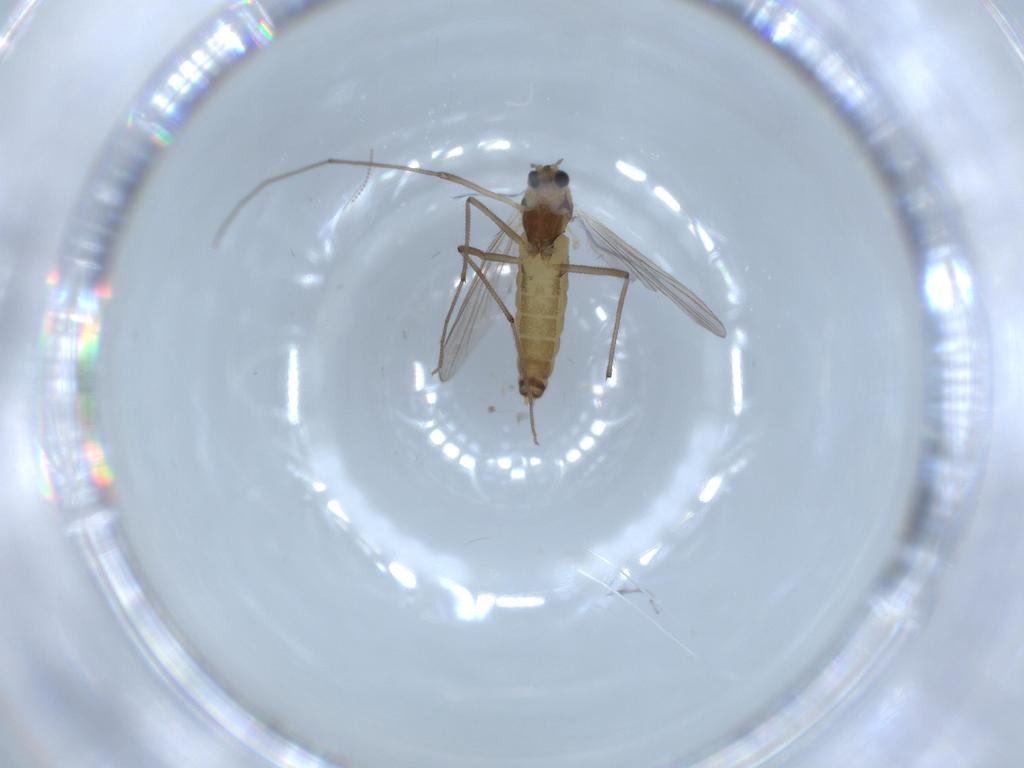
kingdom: Animalia
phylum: Arthropoda
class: Insecta
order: Diptera
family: Chironomidae
